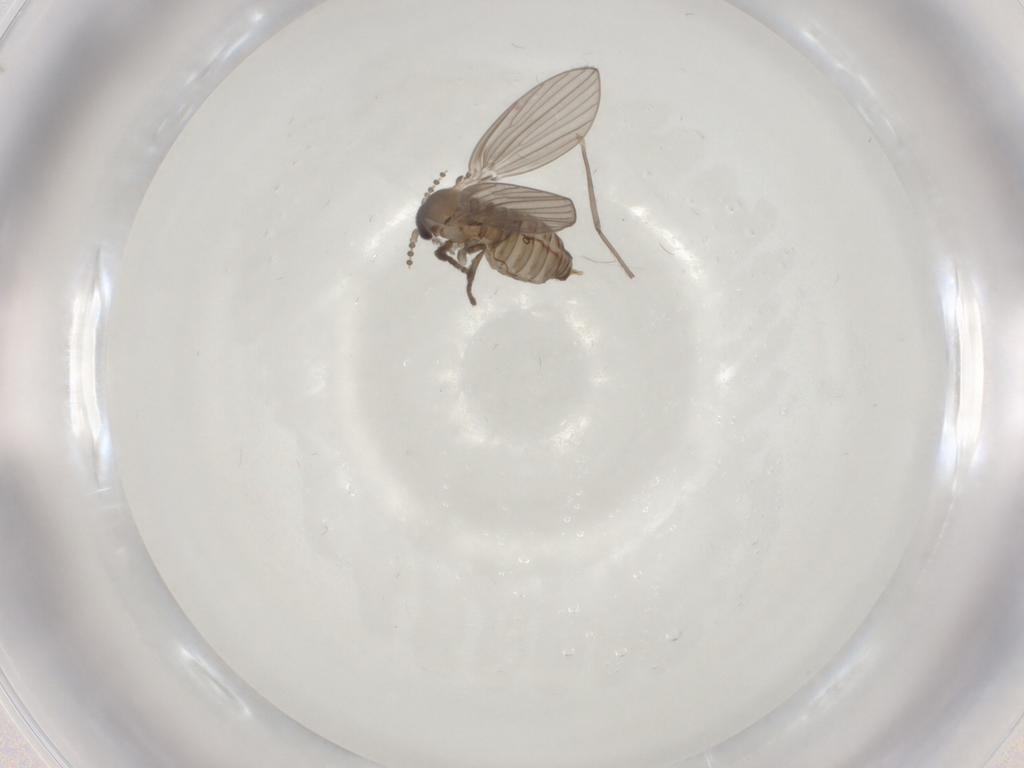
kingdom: Animalia
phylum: Arthropoda
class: Insecta
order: Diptera
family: Psychodidae
